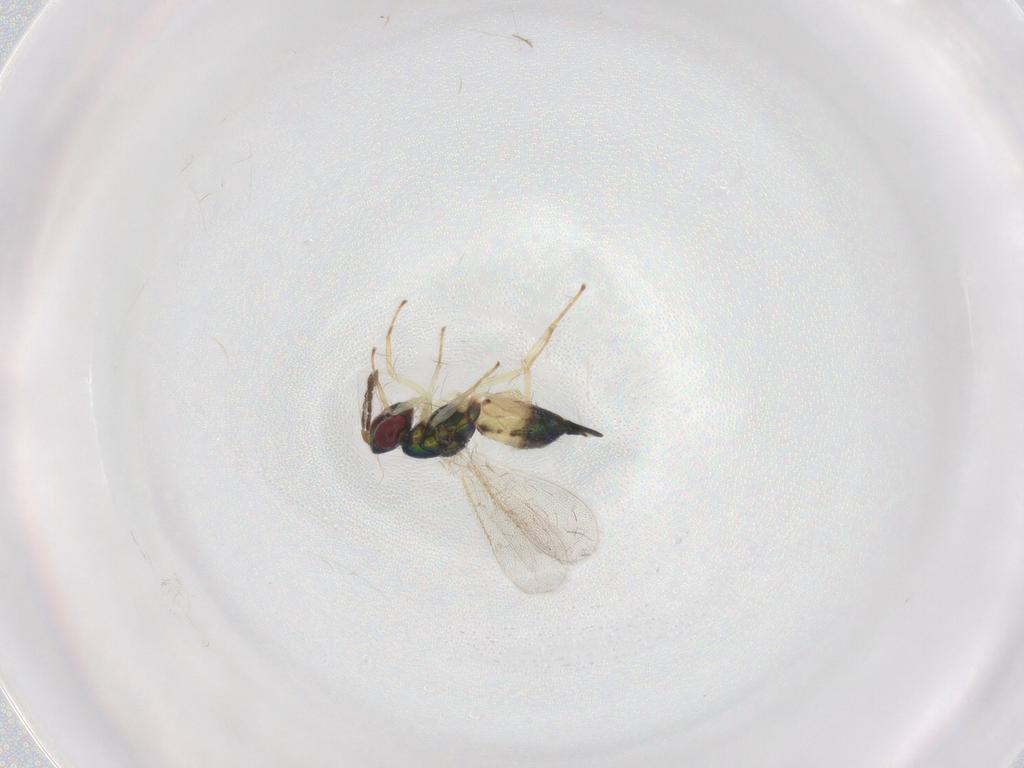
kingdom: Animalia
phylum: Arthropoda
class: Insecta
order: Hymenoptera
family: Eulophidae
